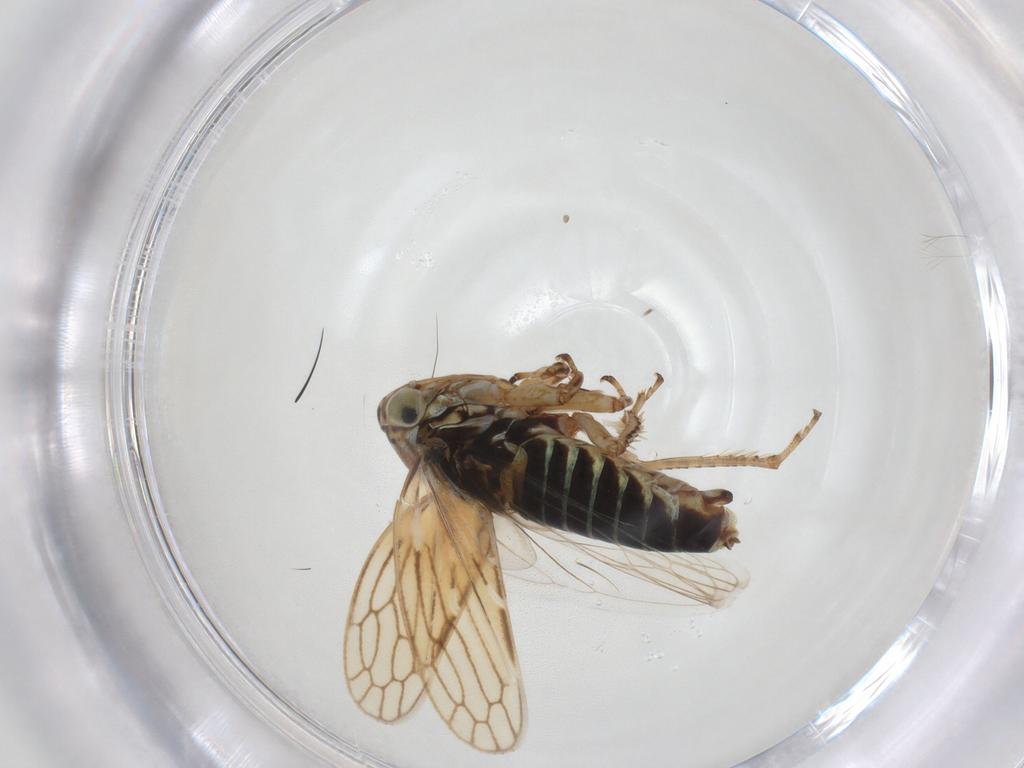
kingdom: Animalia
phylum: Arthropoda
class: Insecta
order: Hemiptera
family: Cicadellidae
